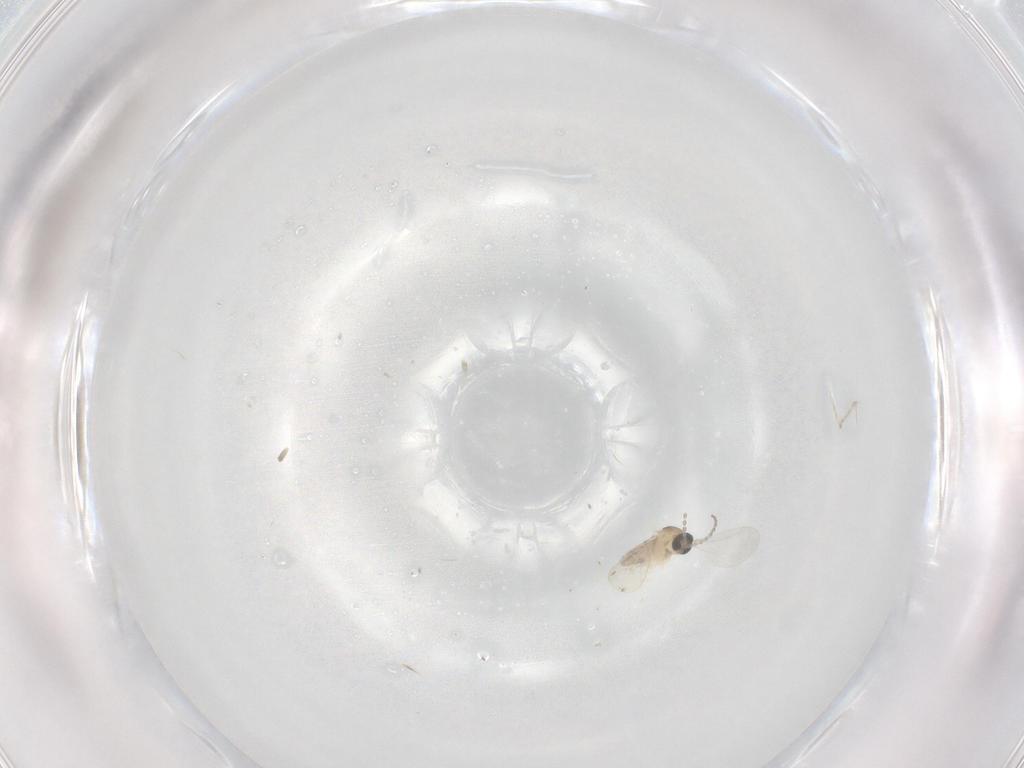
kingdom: Animalia
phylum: Arthropoda
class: Insecta
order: Diptera
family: Cecidomyiidae
